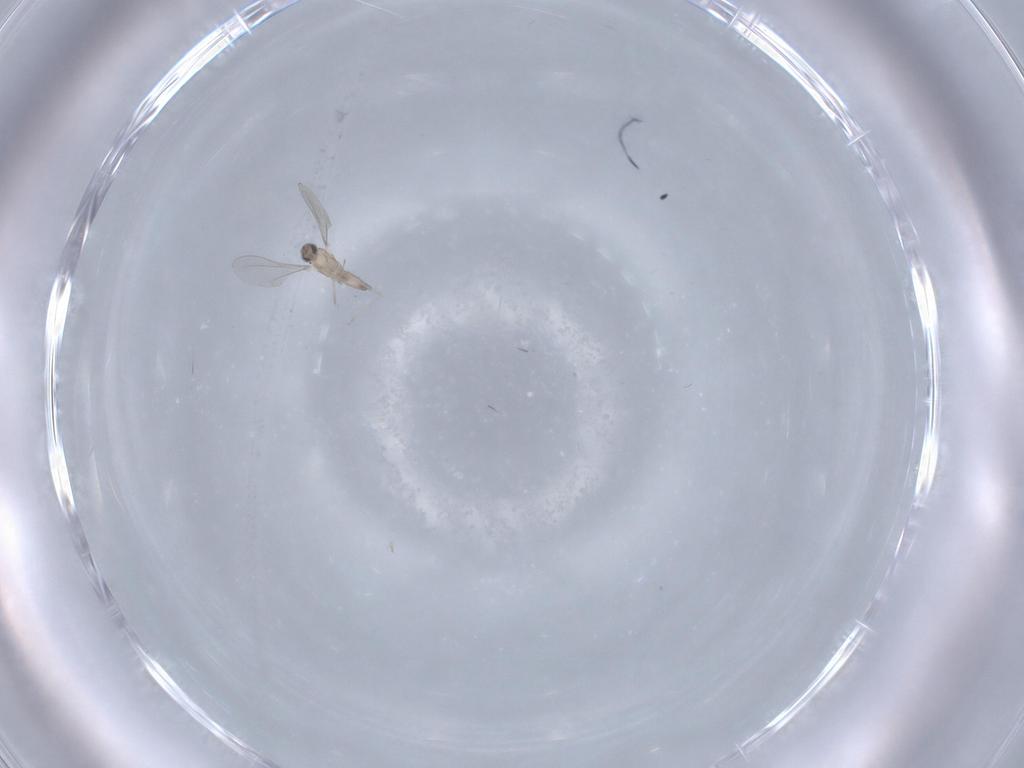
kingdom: Animalia
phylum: Arthropoda
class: Insecta
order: Diptera
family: Cecidomyiidae
